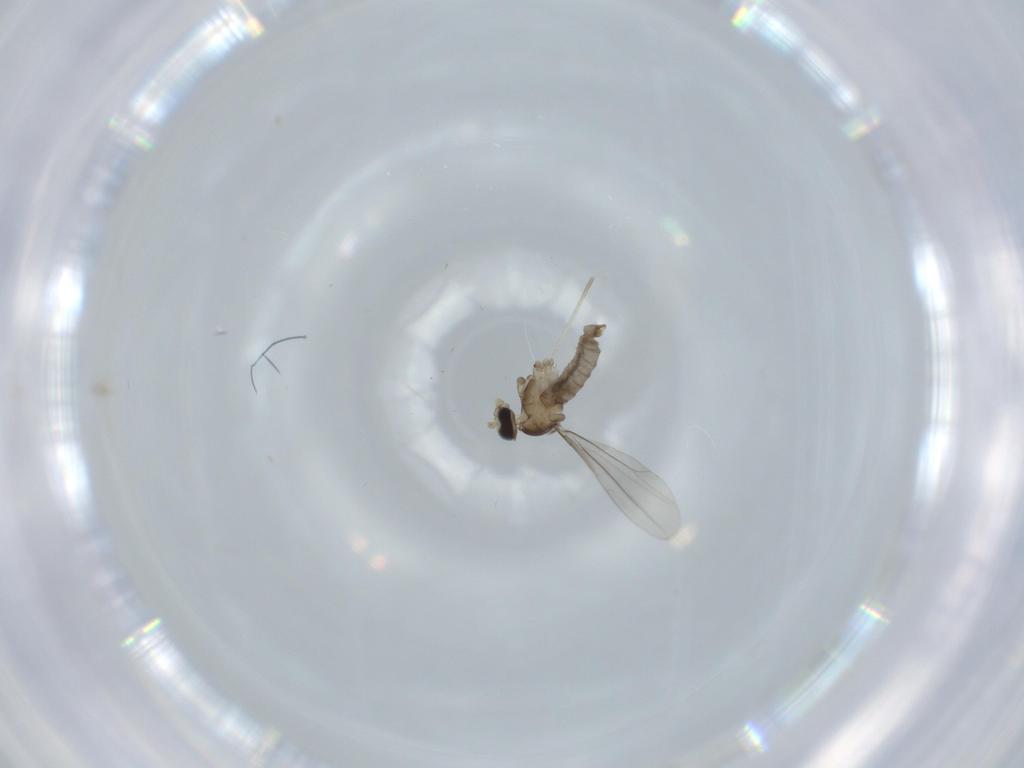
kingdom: Animalia
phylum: Arthropoda
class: Insecta
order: Diptera
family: Cecidomyiidae
